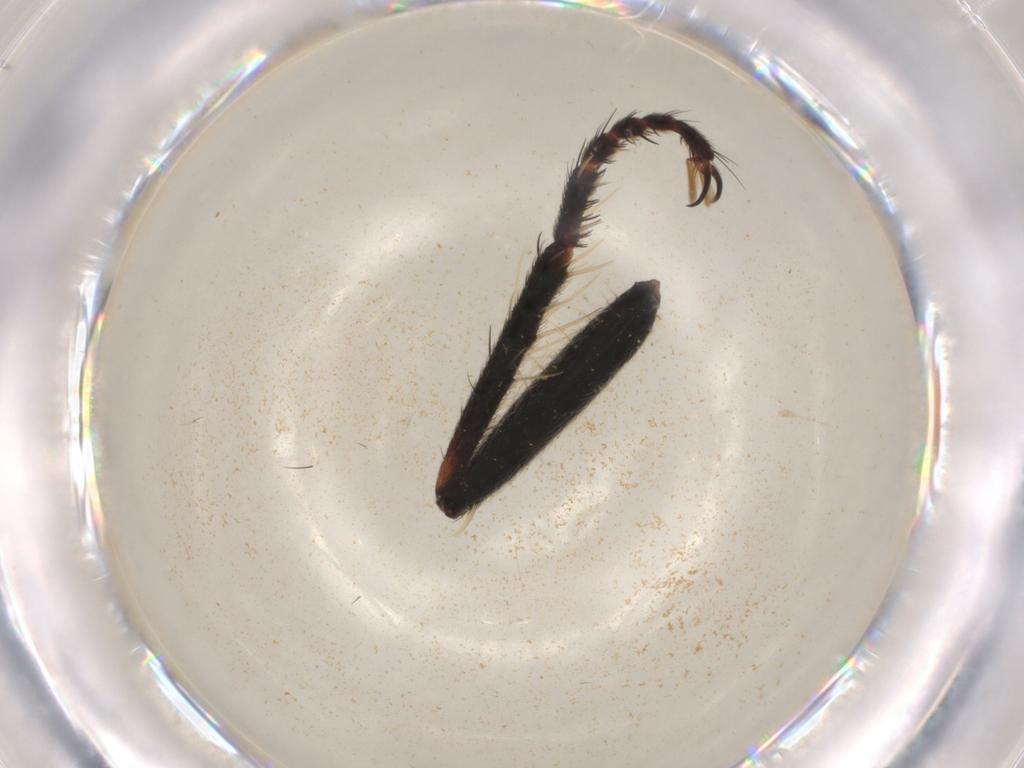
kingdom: Animalia
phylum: Arthropoda
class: Insecta
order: Diptera
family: Asilidae
